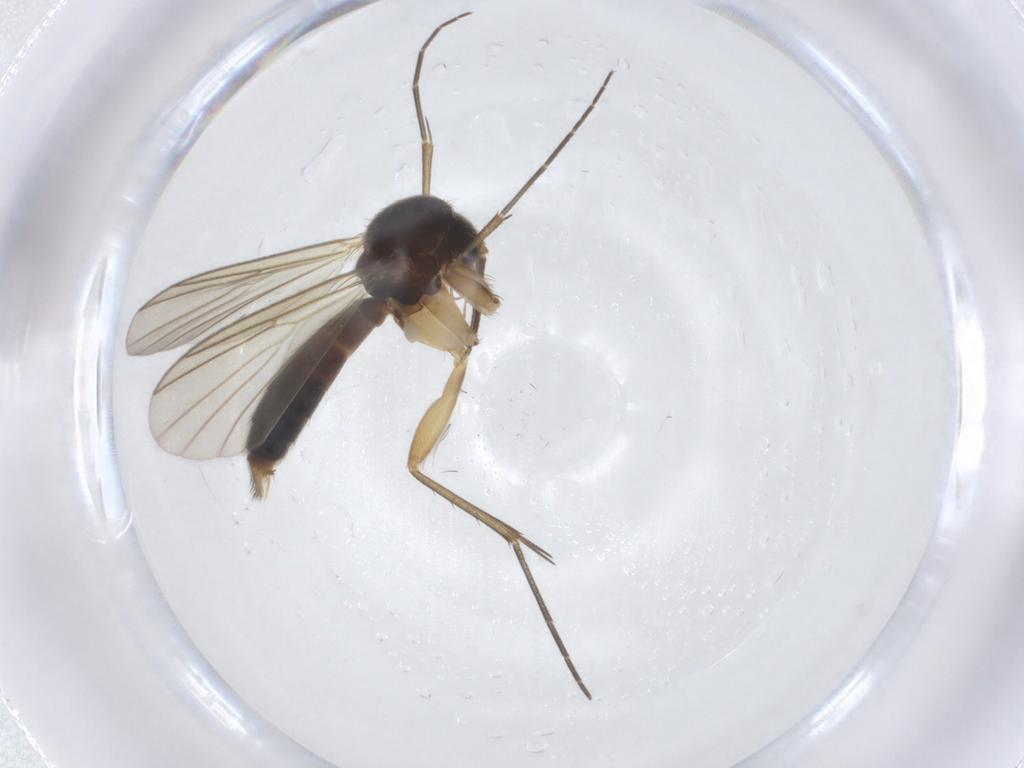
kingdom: Animalia
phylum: Arthropoda
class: Insecta
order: Diptera
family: Mycetophilidae
